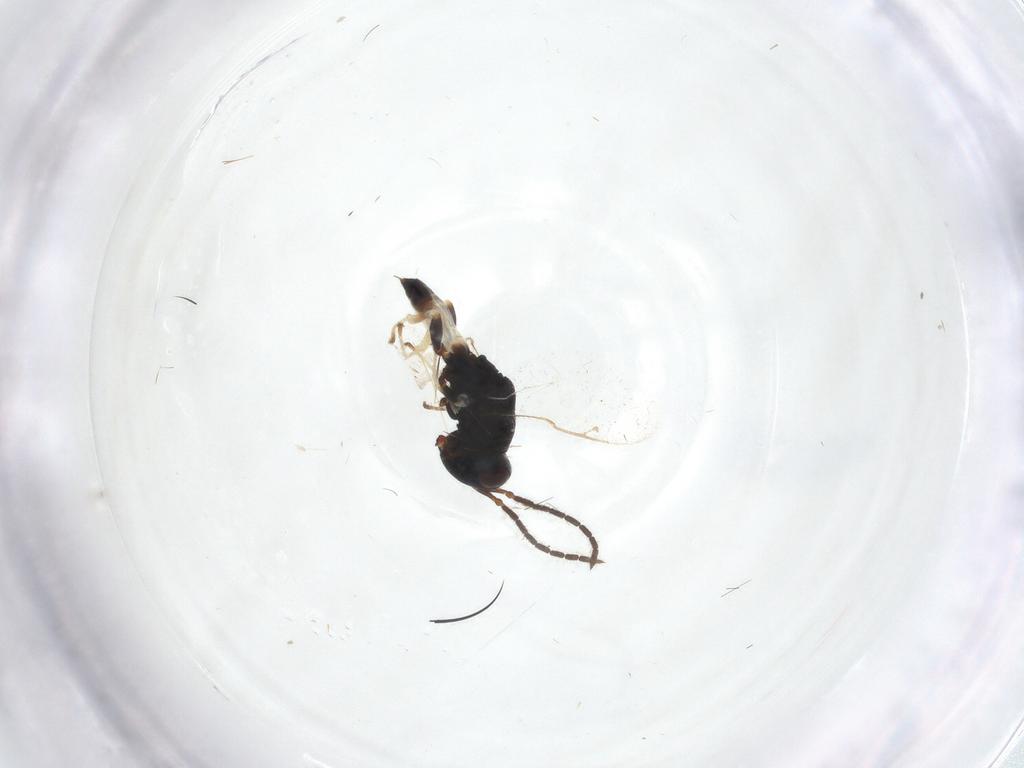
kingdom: Animalia
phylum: Arthropoda
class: Insecta
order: Hymenoptera
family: Pteromalidae
